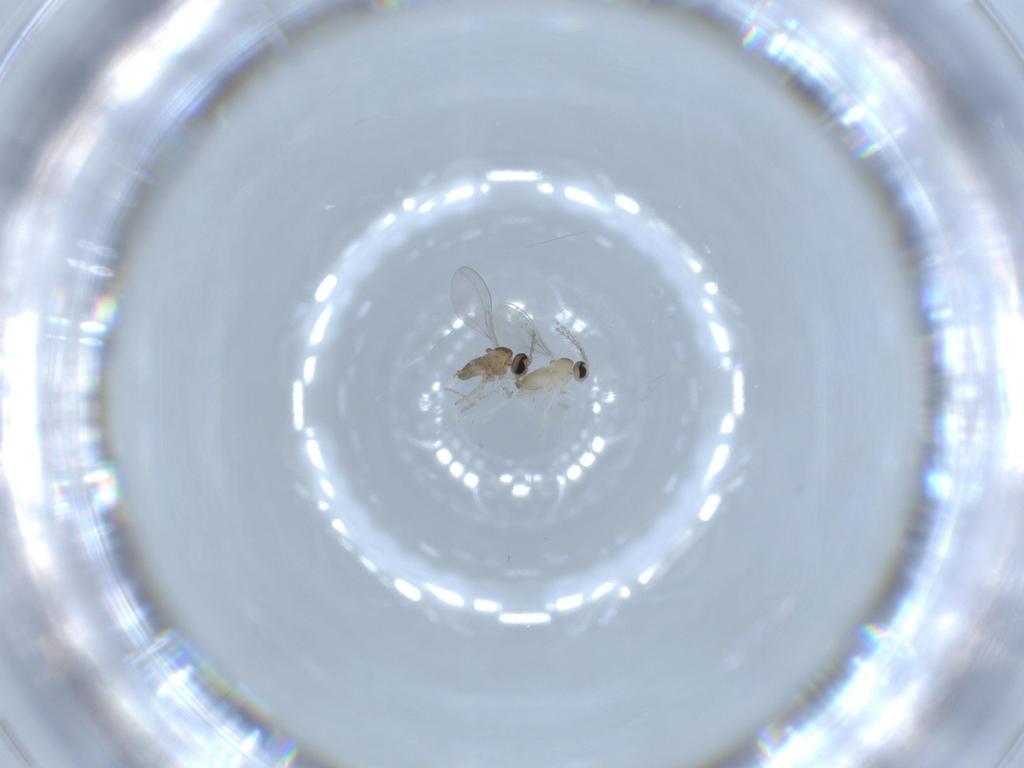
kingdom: Animalia
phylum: Arthropoda
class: Insecta
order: Diptera
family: Cecidomyiidae
